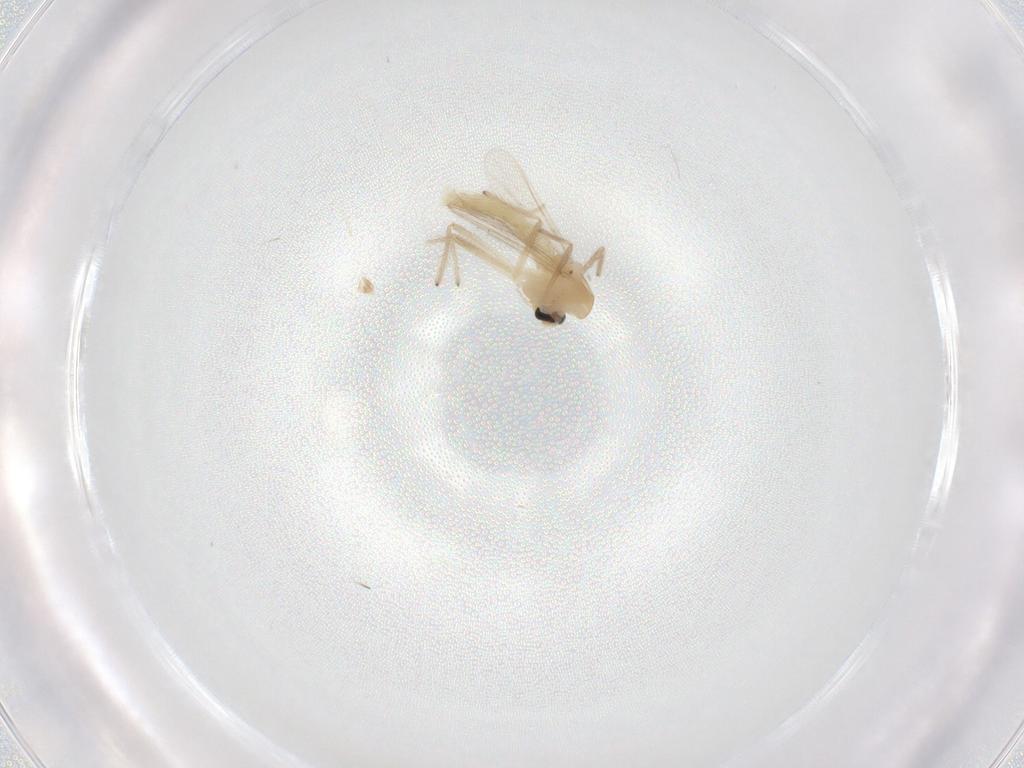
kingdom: Animalia
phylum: Arthropoda
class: Insecta
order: Diptera
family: Chironomidae
